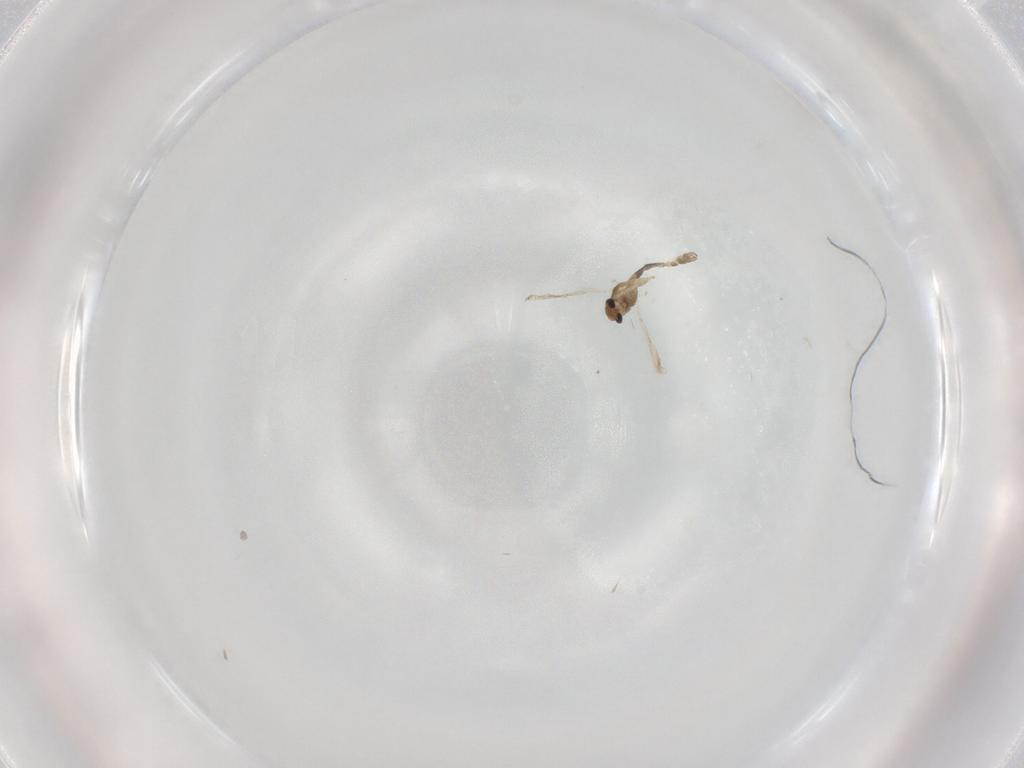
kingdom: Animalia
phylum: Arthropoda
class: Insecta
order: Diptera
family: Chironomidae
